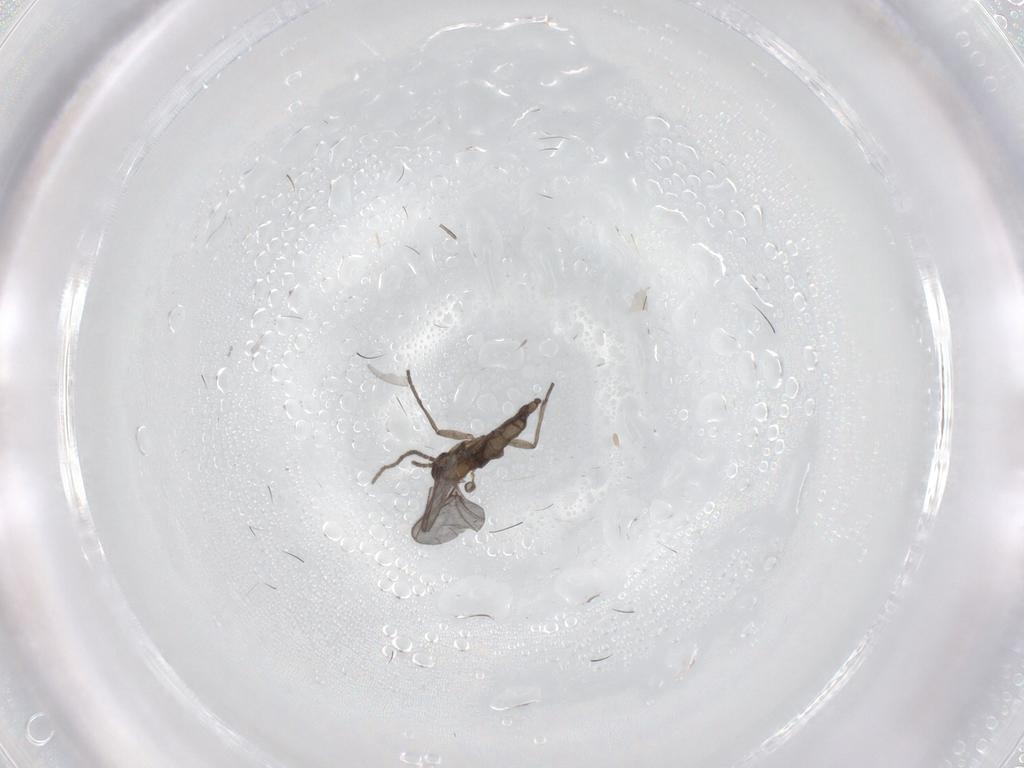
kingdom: Animalia
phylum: Arthropoda
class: Insecta
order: Diptera
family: Sciaridae
